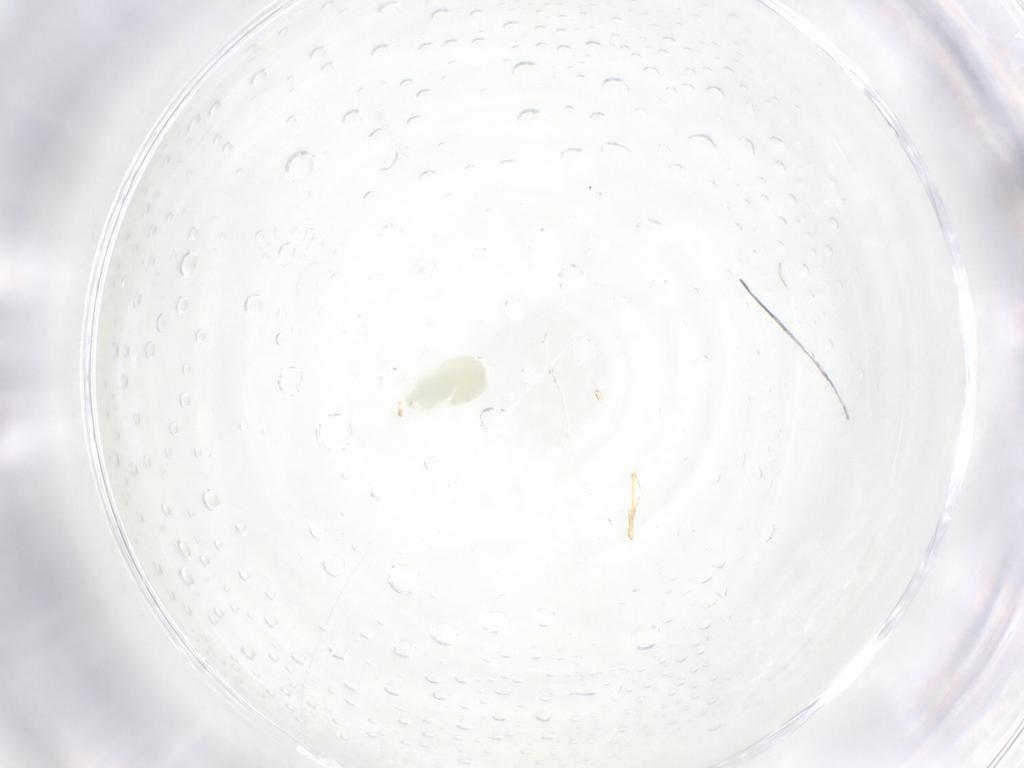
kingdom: Animalia
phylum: Arthropoda
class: Insecta
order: Hymenoptera
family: Dryinidae
